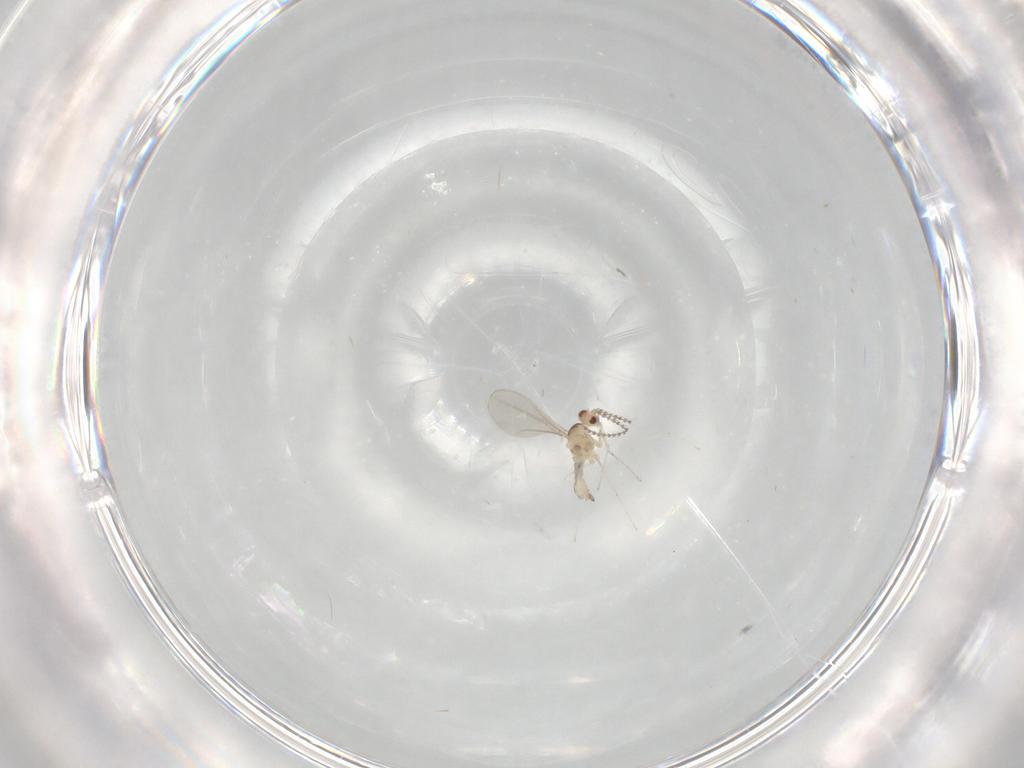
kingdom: Animalia
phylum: Arthropoda
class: Insecta
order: Diptera
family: Cecidomyiidae
